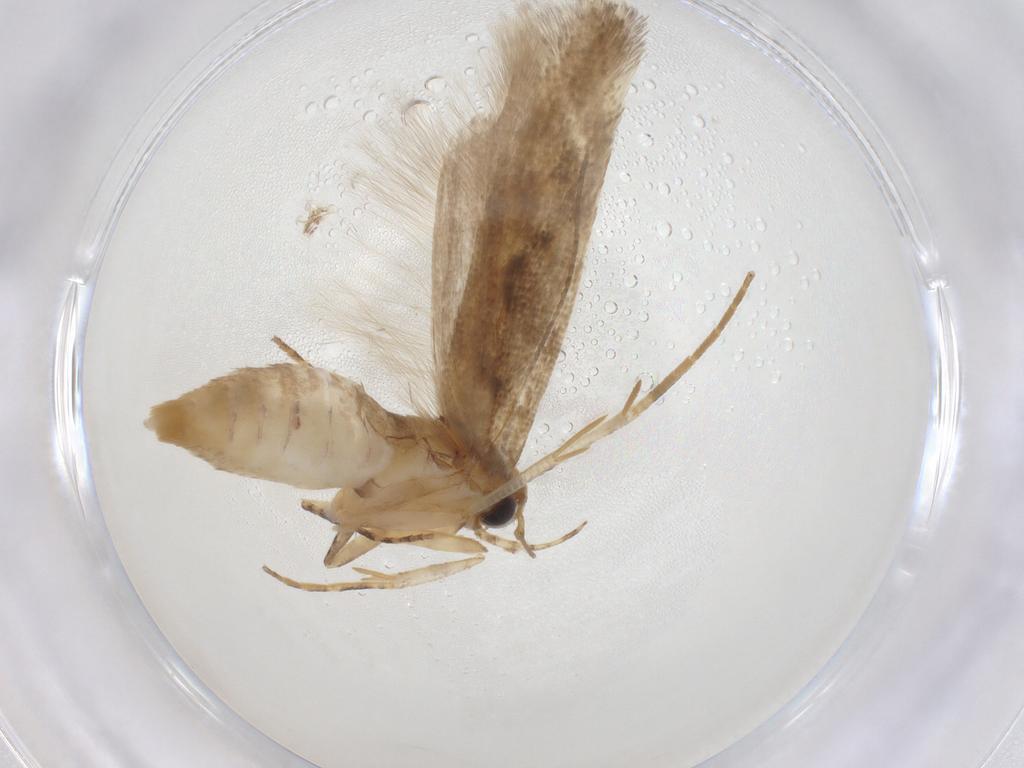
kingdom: Animalia
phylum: Arthropoda
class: Insecta
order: Lepidoptera
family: Gelechiidae
